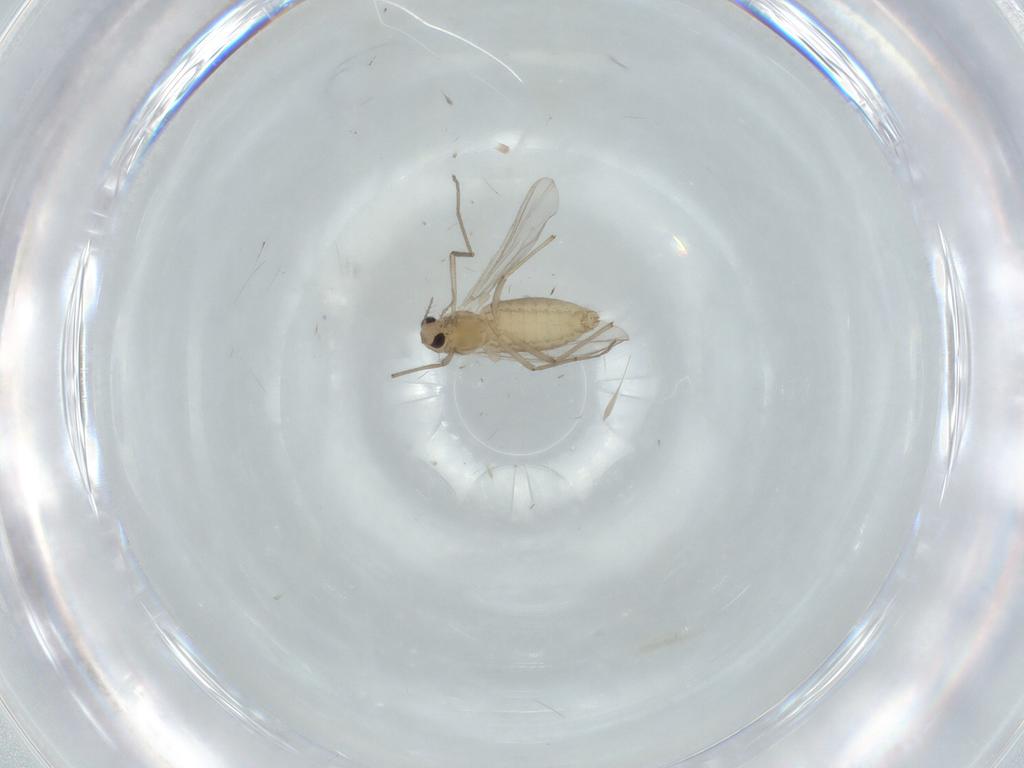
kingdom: Animalia
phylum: Arthropoda
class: Insecta
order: Diptera
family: Chironomidae
